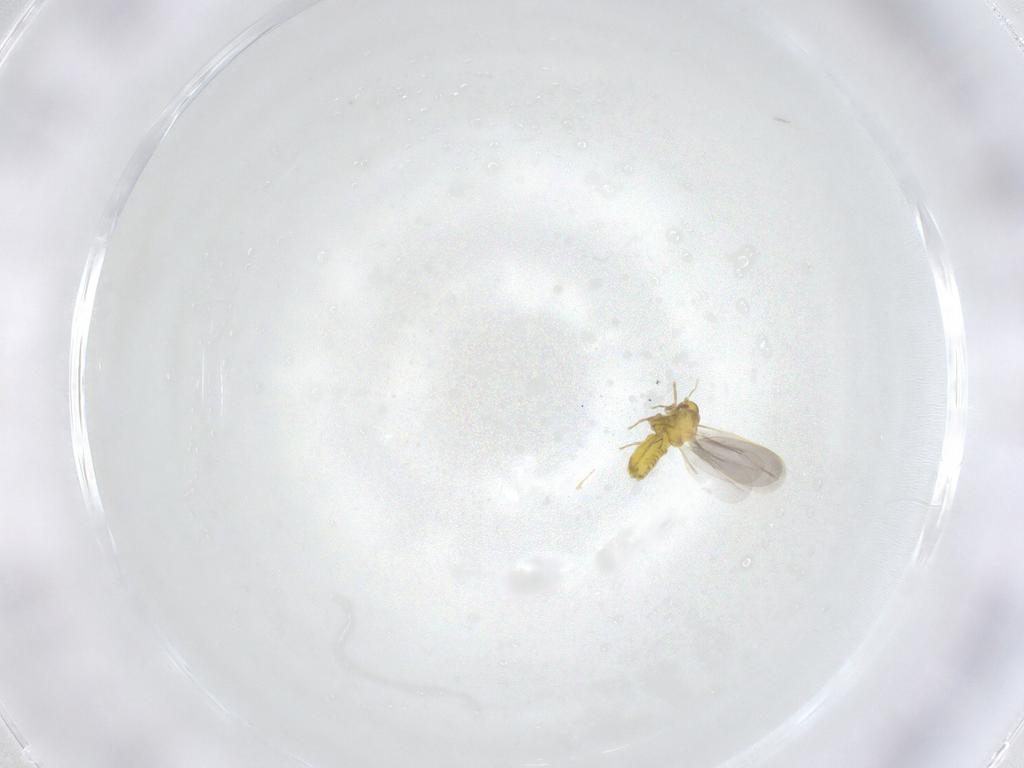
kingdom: Animalia
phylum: Arthropoda
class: Insecta
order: Hemiptera
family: Aleyrodidae
